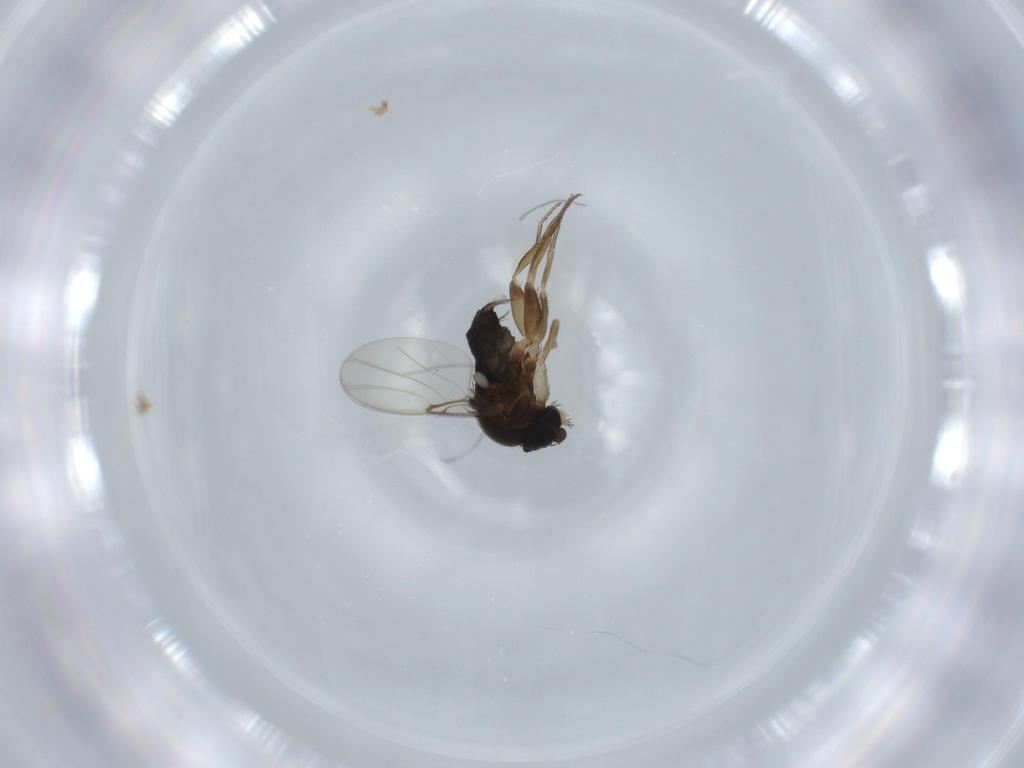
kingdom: Animalia
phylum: Arthropoda
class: Insecta
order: Diptera
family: Phoridae
